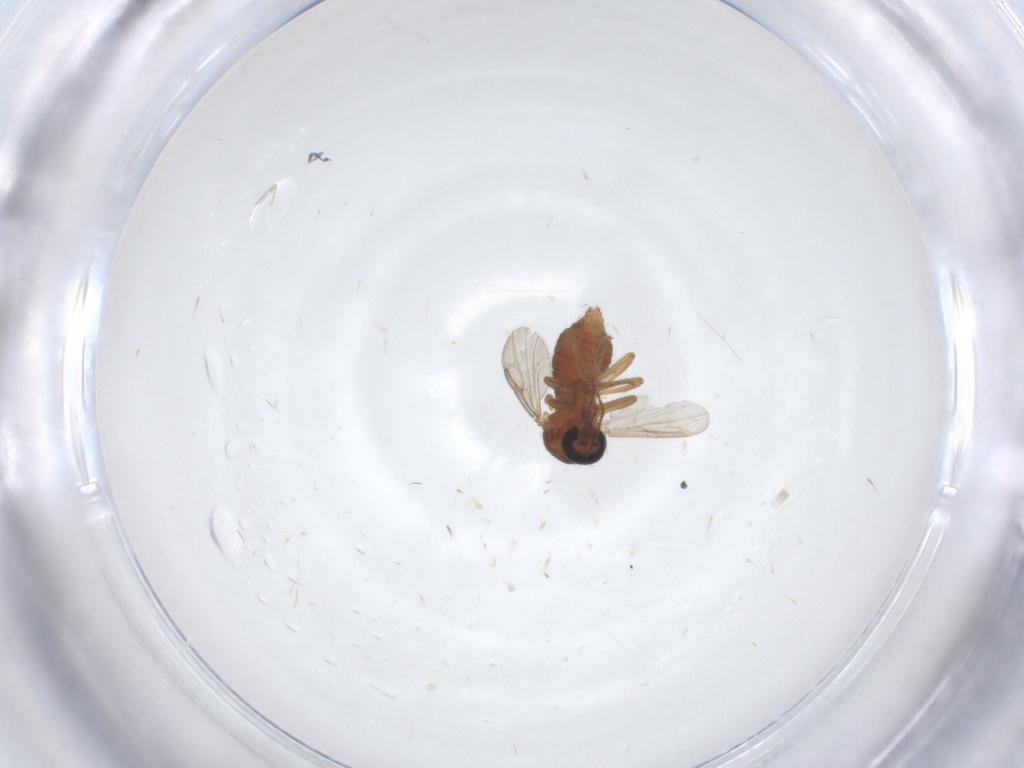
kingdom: Animalia
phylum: Arthropoda
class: Insecta
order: Diptera
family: Ceratopogonidae
